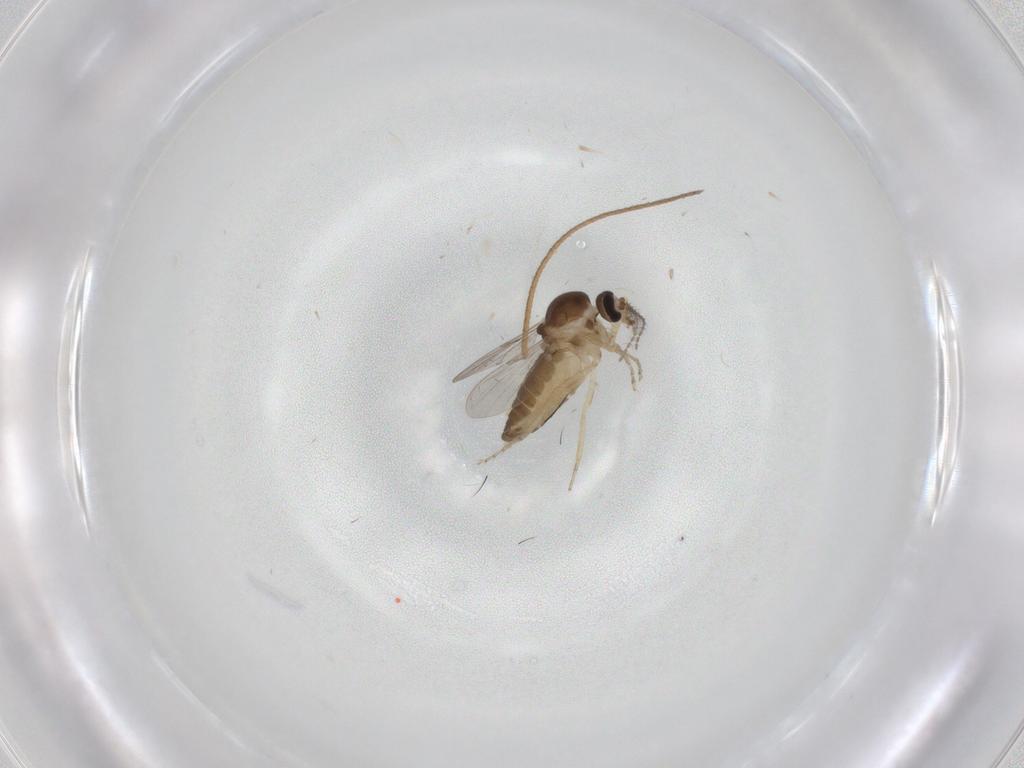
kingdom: Animalia
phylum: Arthropoda
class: Insecta
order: Diptera
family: Ceratopogonidae
